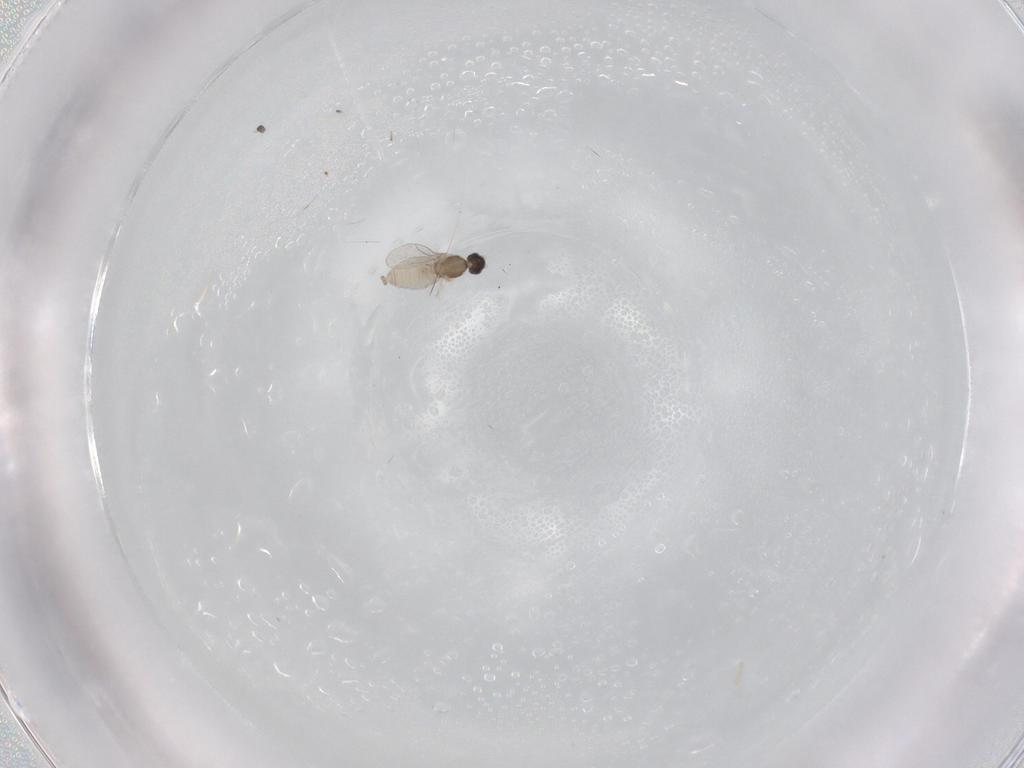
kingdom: Animalia
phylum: Arthropoda
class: Insecta
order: Diptera
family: Cecidomyiidae
